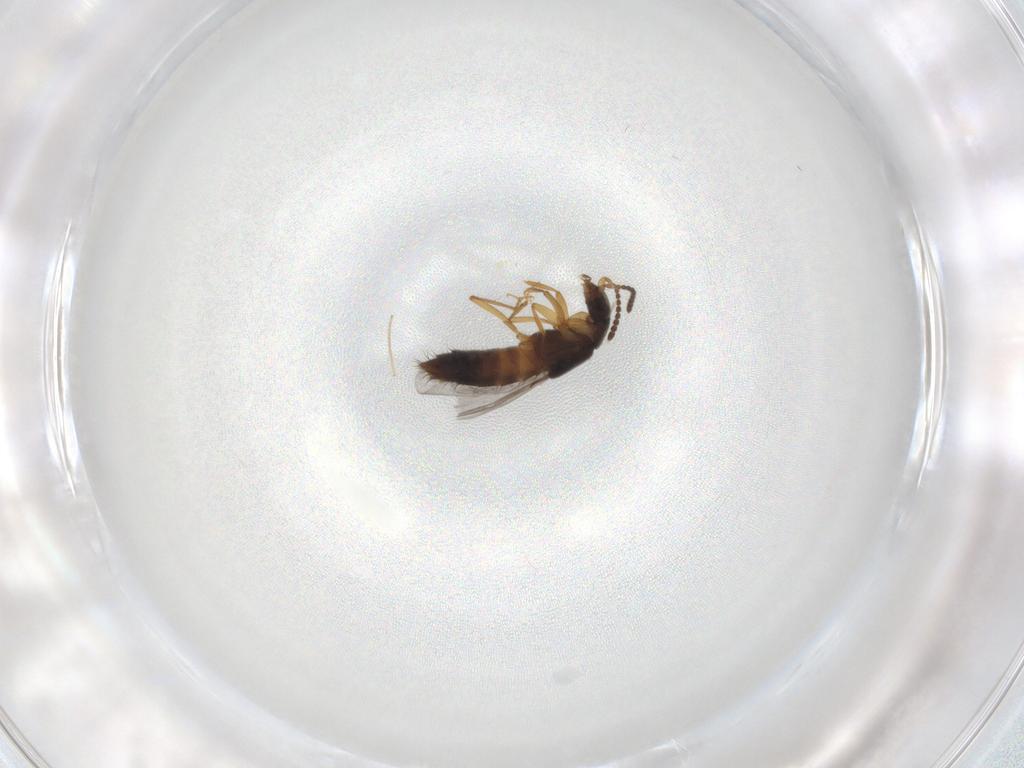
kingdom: Animalia
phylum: Arthropoda
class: Insecta
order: Coleoptera
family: Staphylinidae
